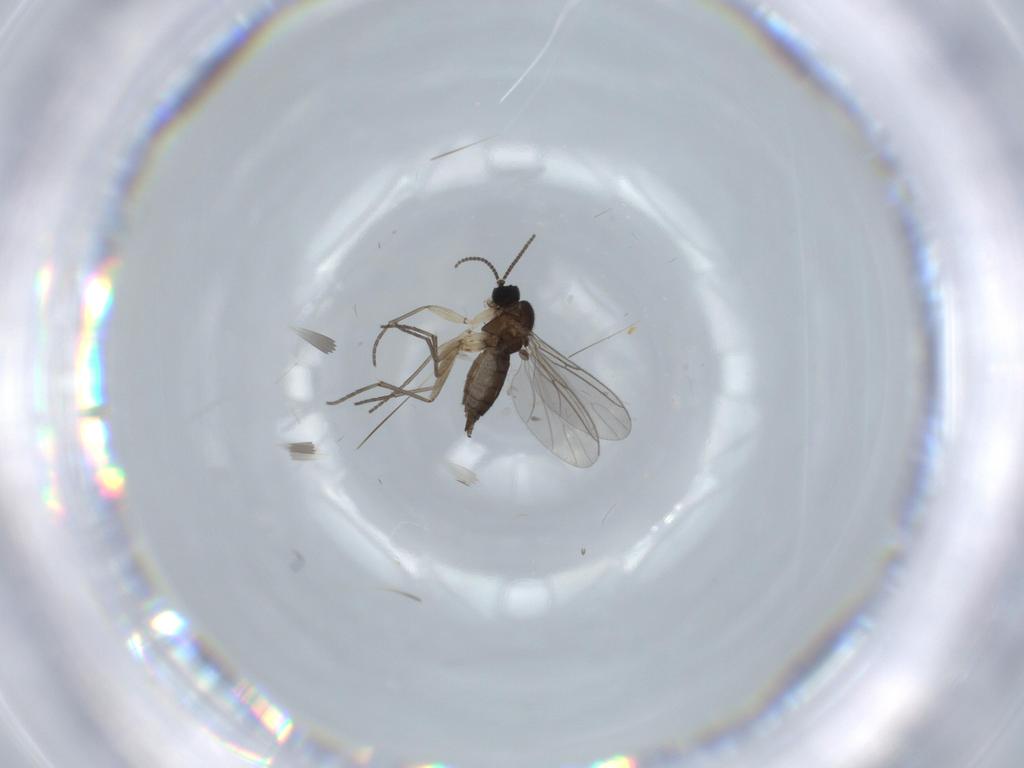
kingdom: Animalia
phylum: Arthropoda
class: Insecta
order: Diptera
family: Sciaridae
